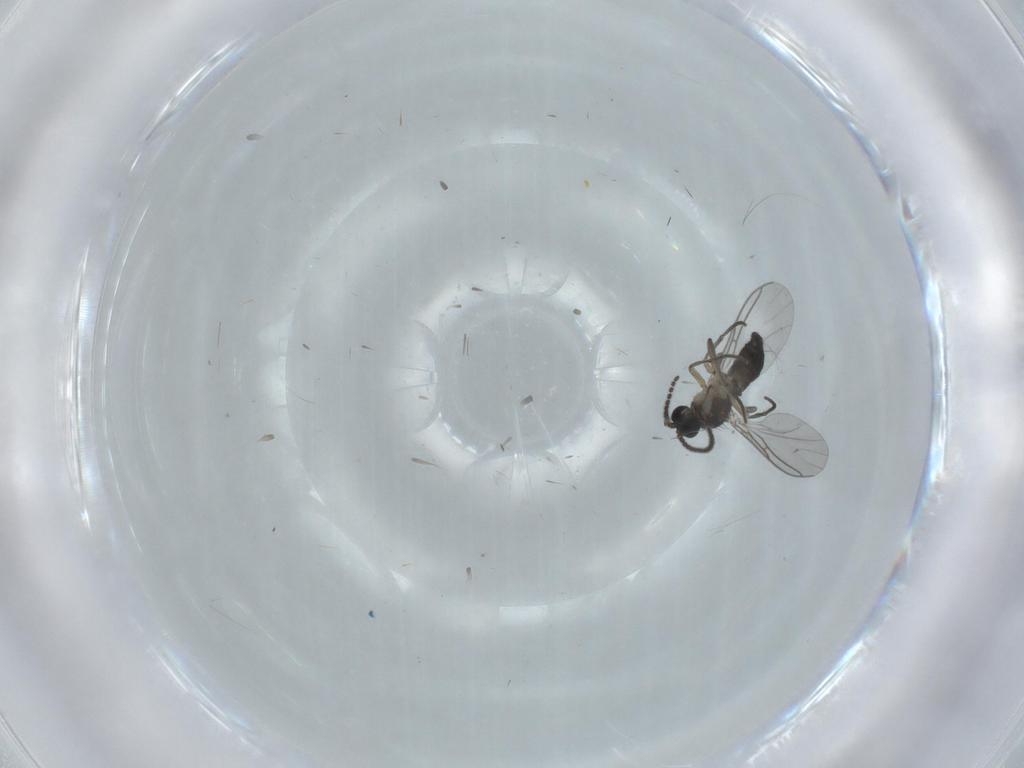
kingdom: Animalia
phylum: Arthropoda
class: Insecta
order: Diptera
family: Sciaridae
